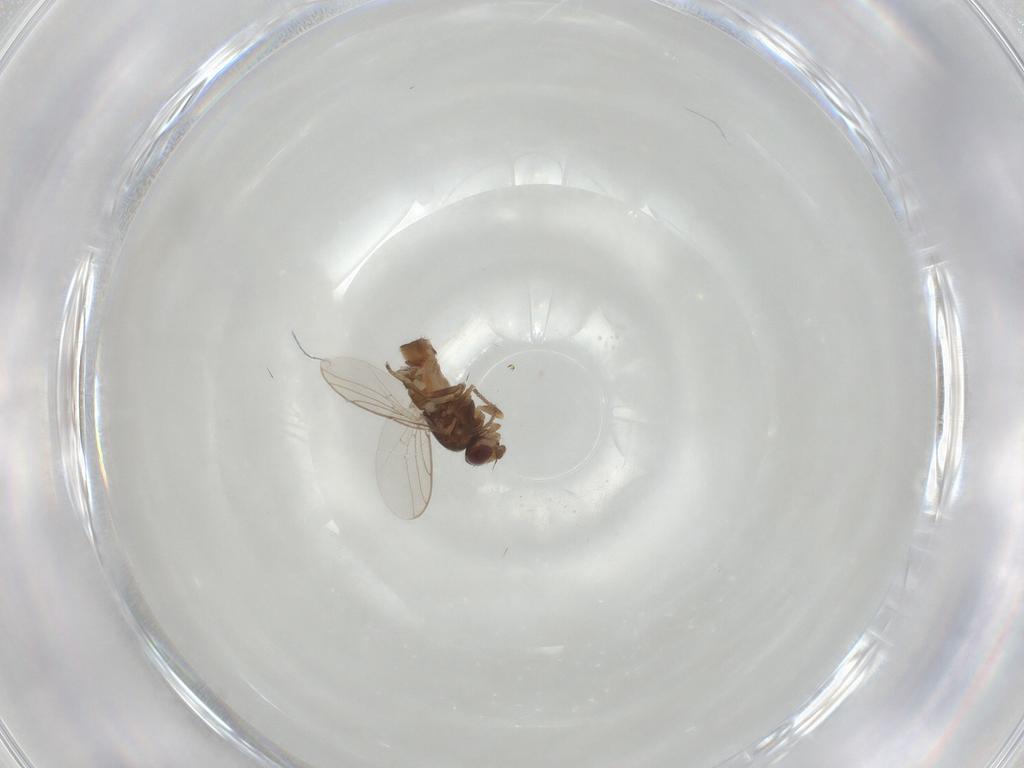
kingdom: Animalia
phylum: Arthropoda
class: Insecta
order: Diptera
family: Chloropidae
